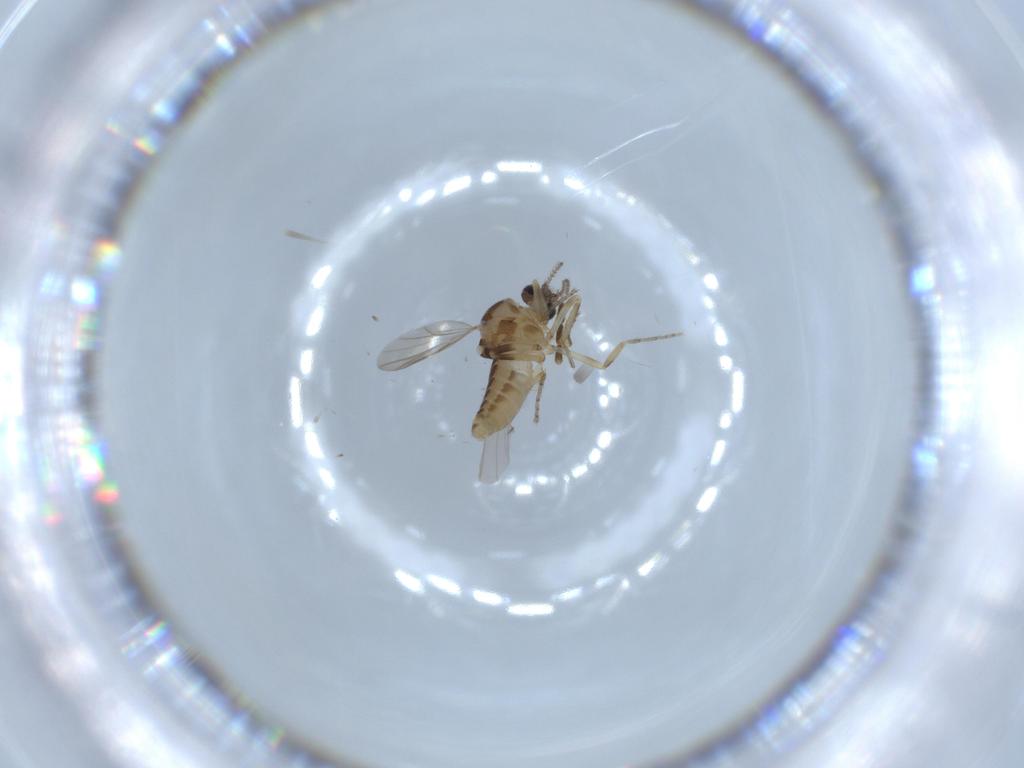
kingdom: Animalia
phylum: Arthropoda
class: Insecta
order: Diptera
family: Ceratopogonidae
